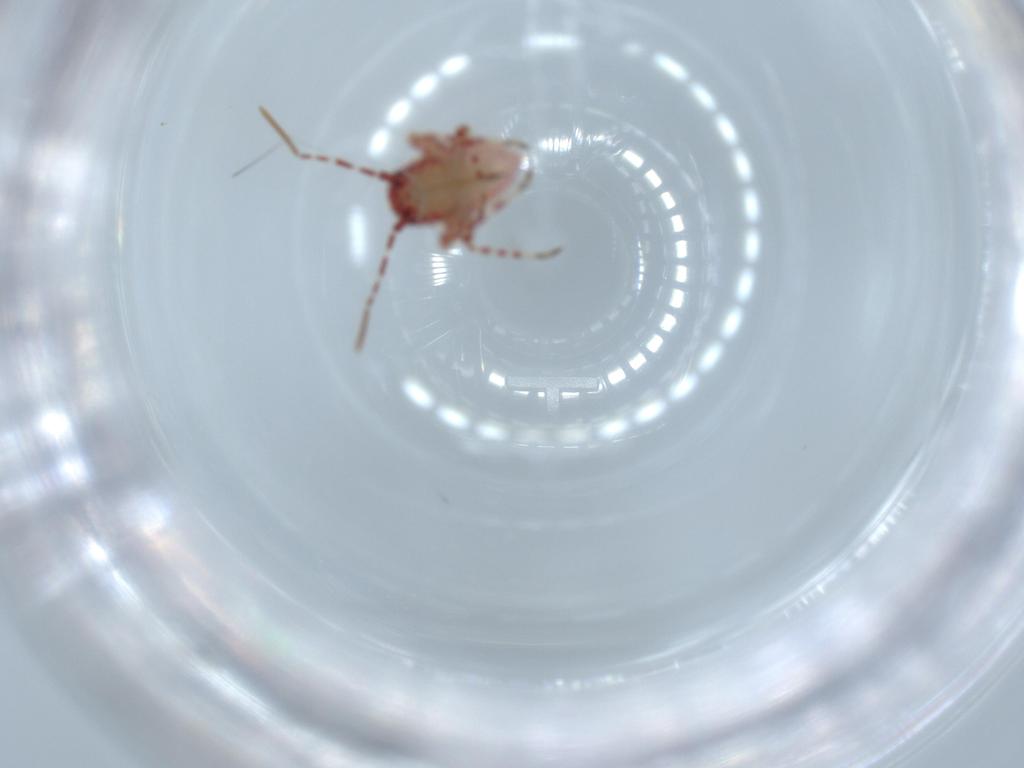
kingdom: Animalia
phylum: Arthropoda
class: Insecta
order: Hemiptera
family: Miridae
